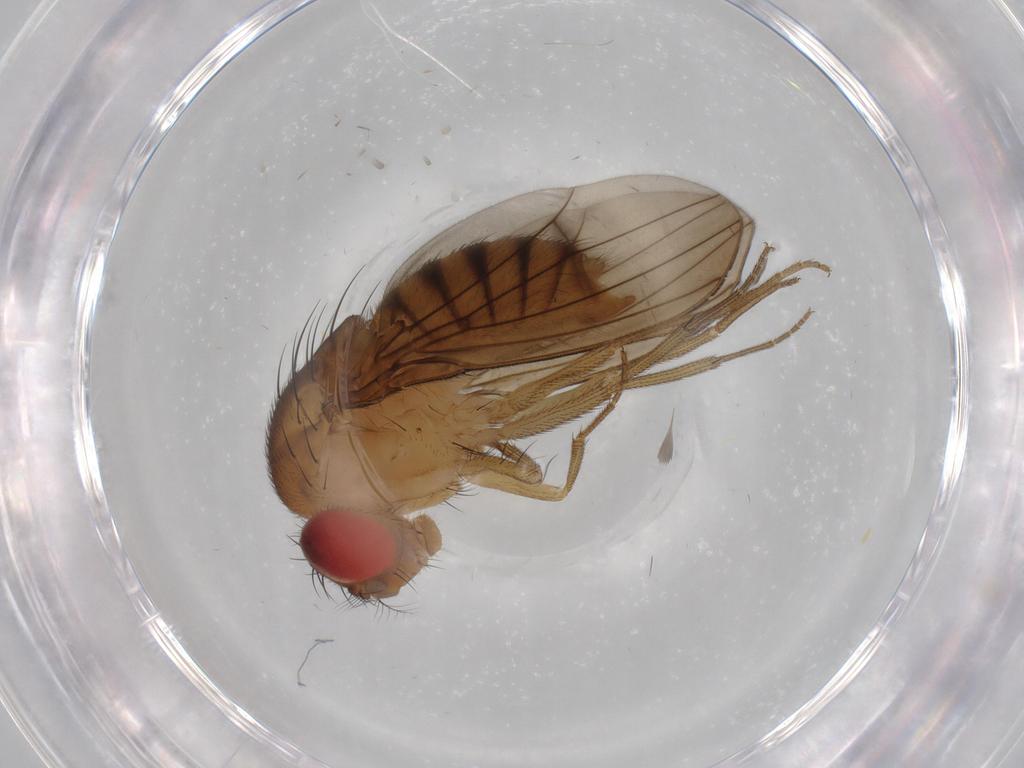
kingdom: Animalia
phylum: Arthropoda
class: Insecta
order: Diptera
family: Drosophilidae
